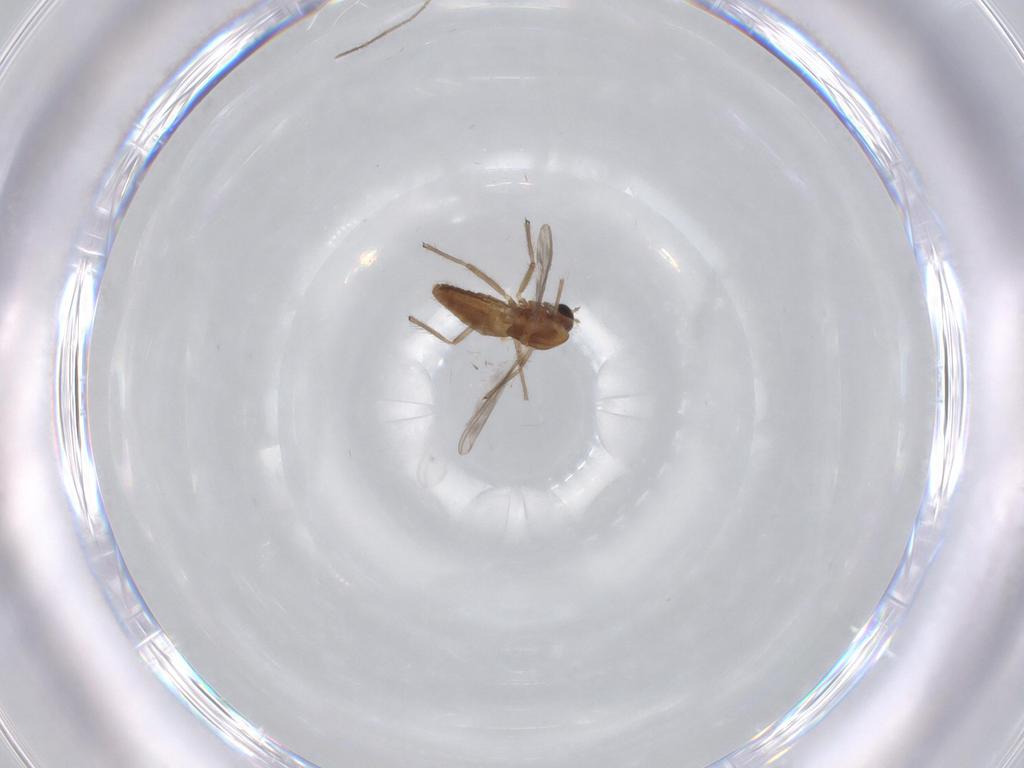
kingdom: Animalia
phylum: Arthropoda
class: Insecta
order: Diptera
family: Chironomidae
